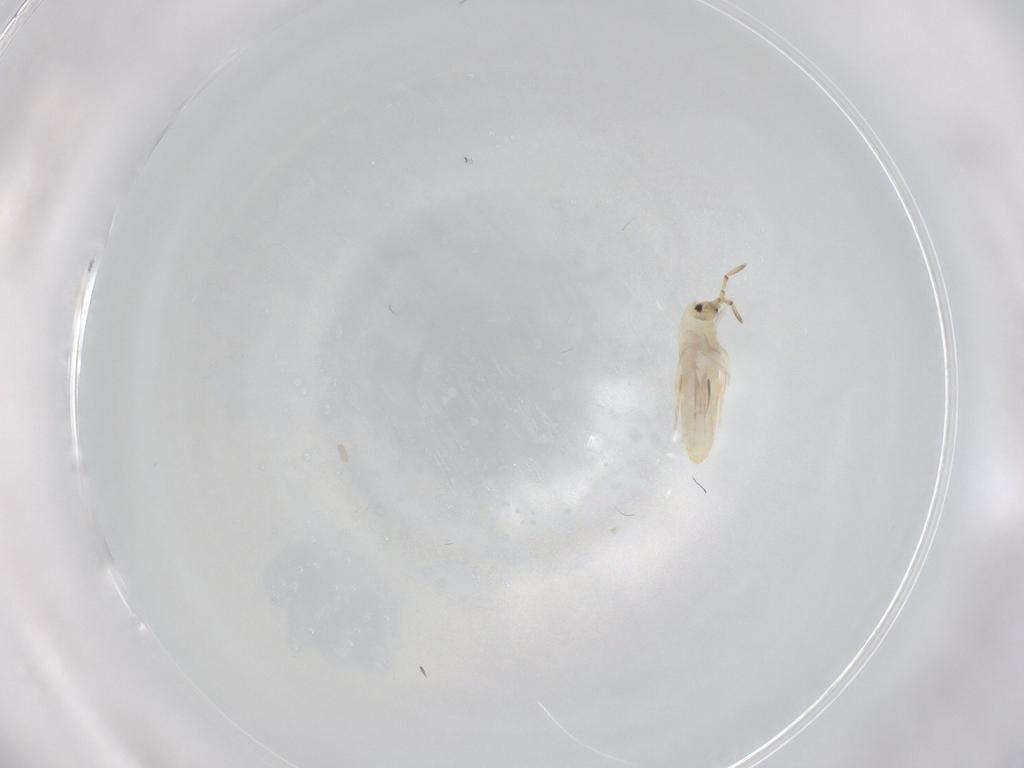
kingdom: Animalia
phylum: Arthropoda
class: Collembola
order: Entomobryomorpha
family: Entomobryidae
